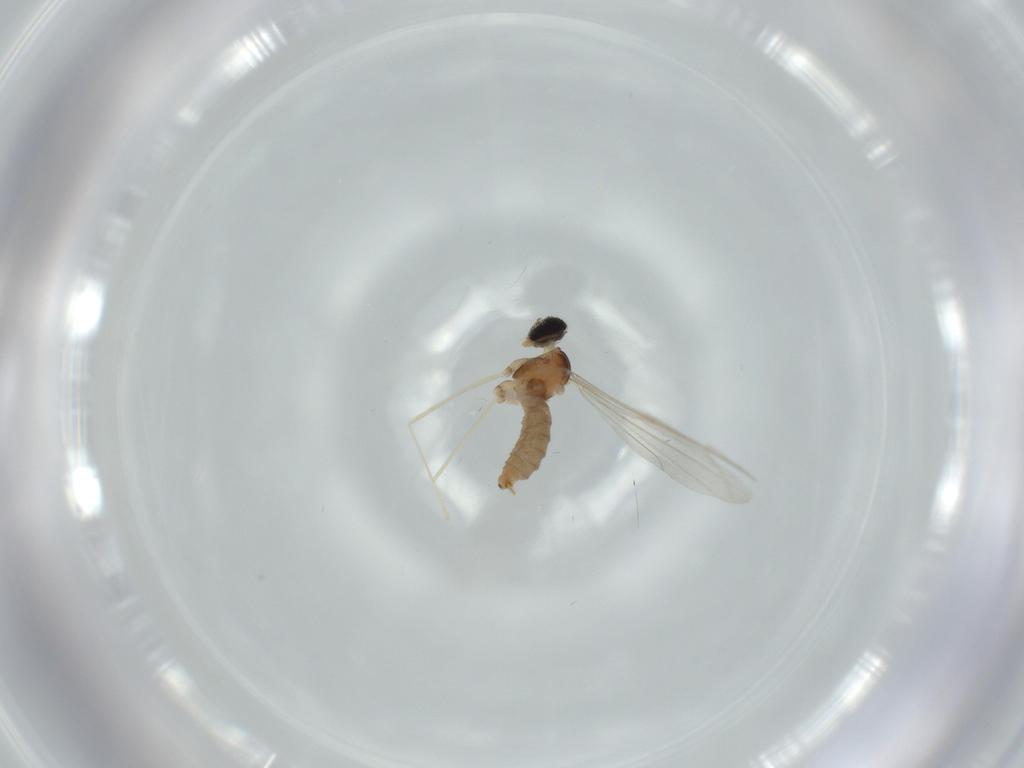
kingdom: Animalia
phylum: Arthropoda
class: Insecta
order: Diptera
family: Cecidomyiidae
